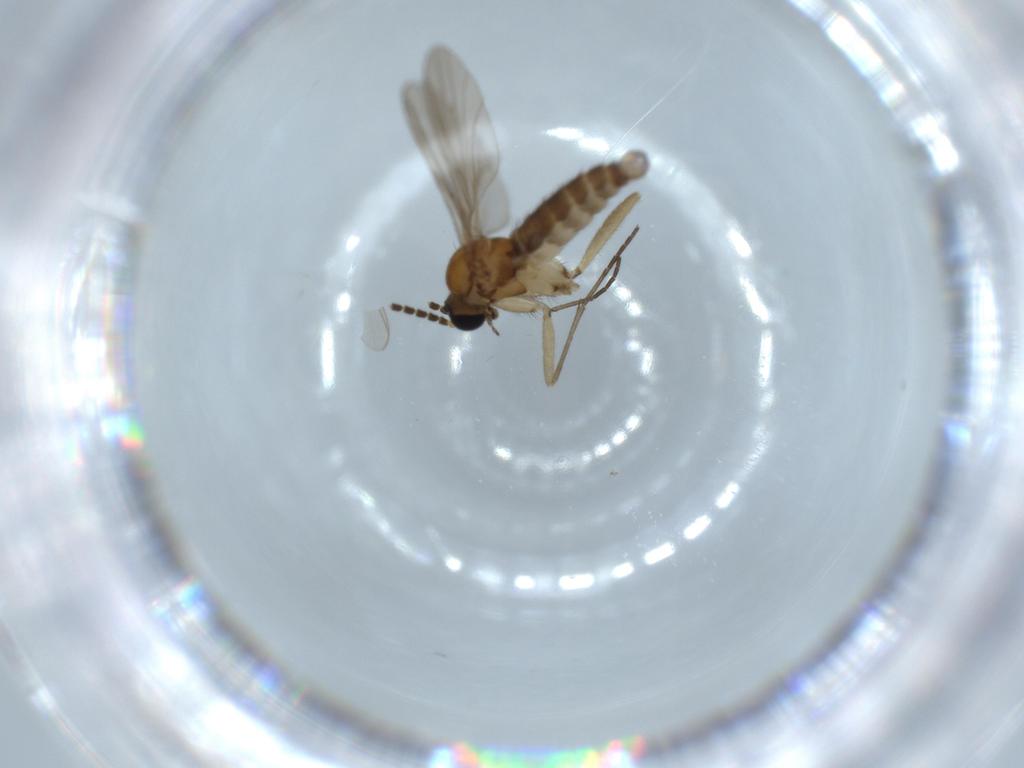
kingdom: Animalia
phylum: Arthropoda
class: Insecta
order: Diptera
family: Sciaridae
